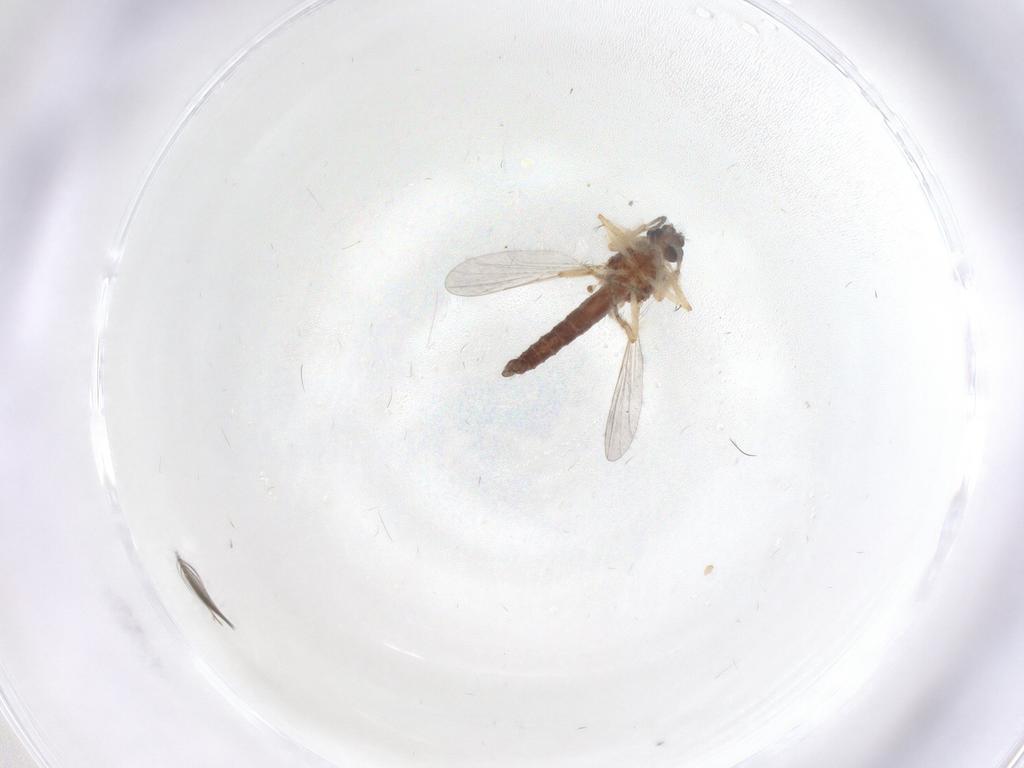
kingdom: Animalia
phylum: Arthropoda
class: Insecta
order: Diptera
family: Ceratopogonidae
